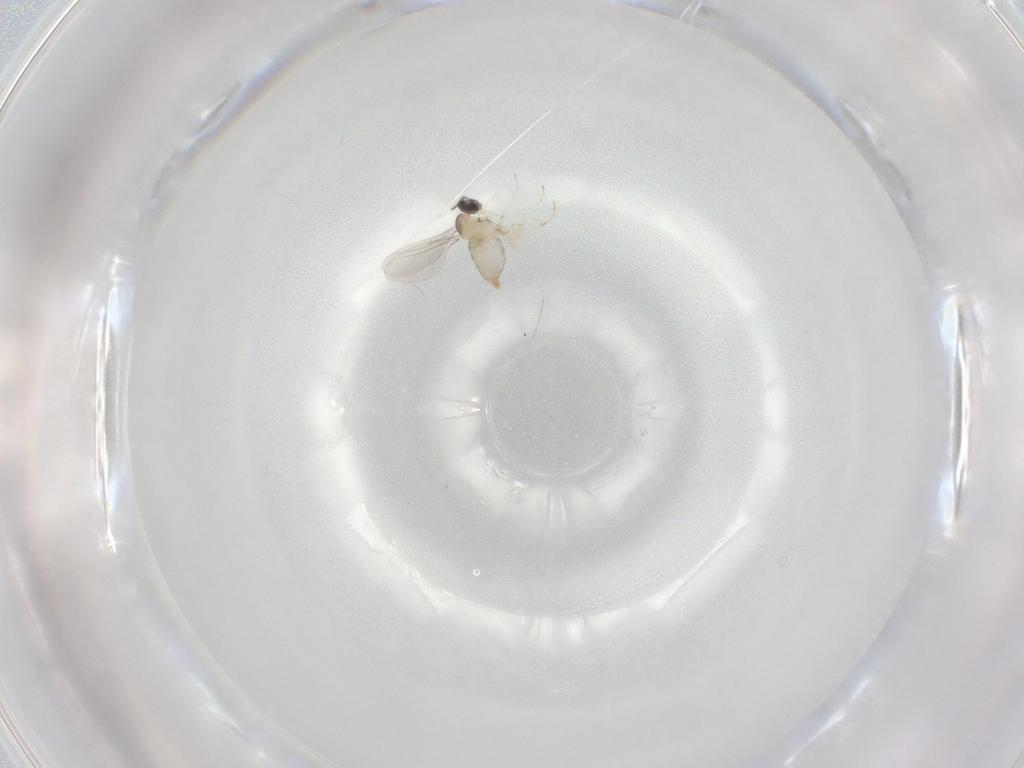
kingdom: Animalia
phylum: Arthropoda
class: Insecta
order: Diptera
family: Cecidomyiidae
